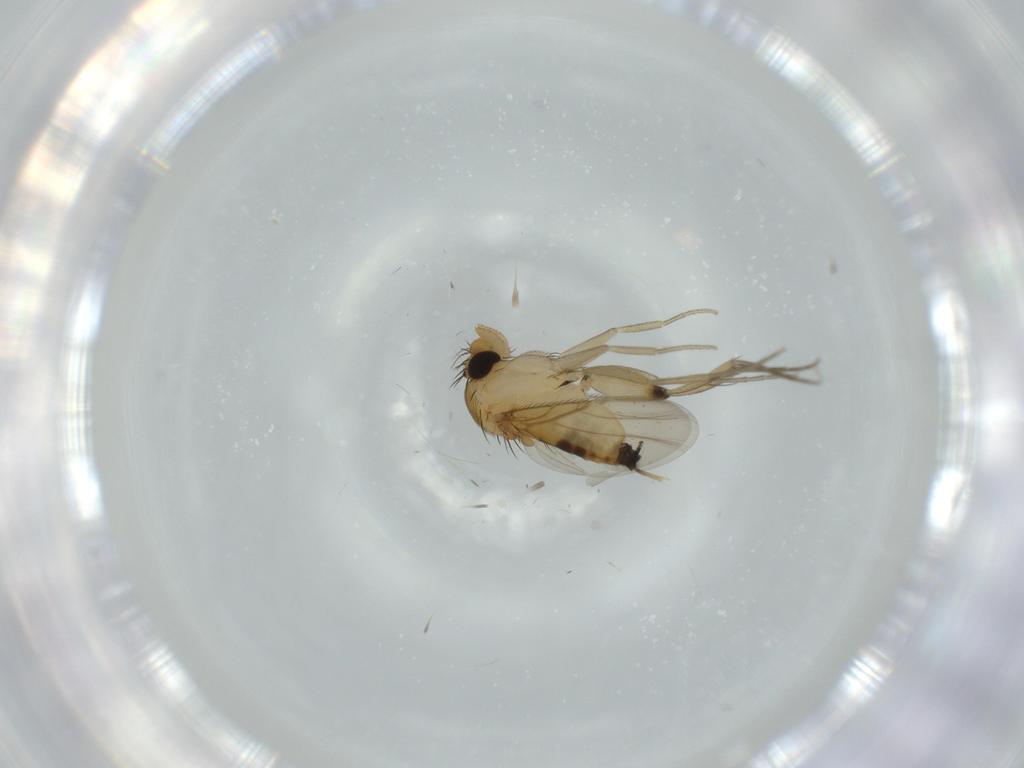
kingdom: Animalia
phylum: Arthropoda
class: Insecta
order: Diptera
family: Phoridae
